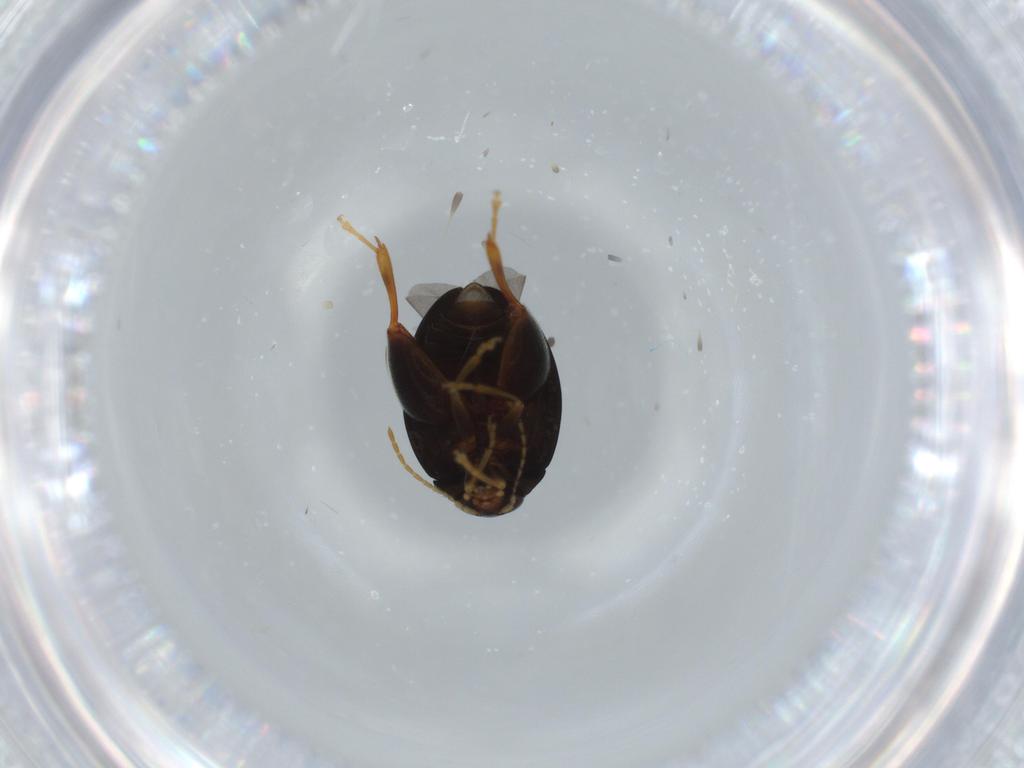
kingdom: Animalia
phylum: Arthropoda
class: Insecta
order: Coleoptera
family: Chrysomelidae
